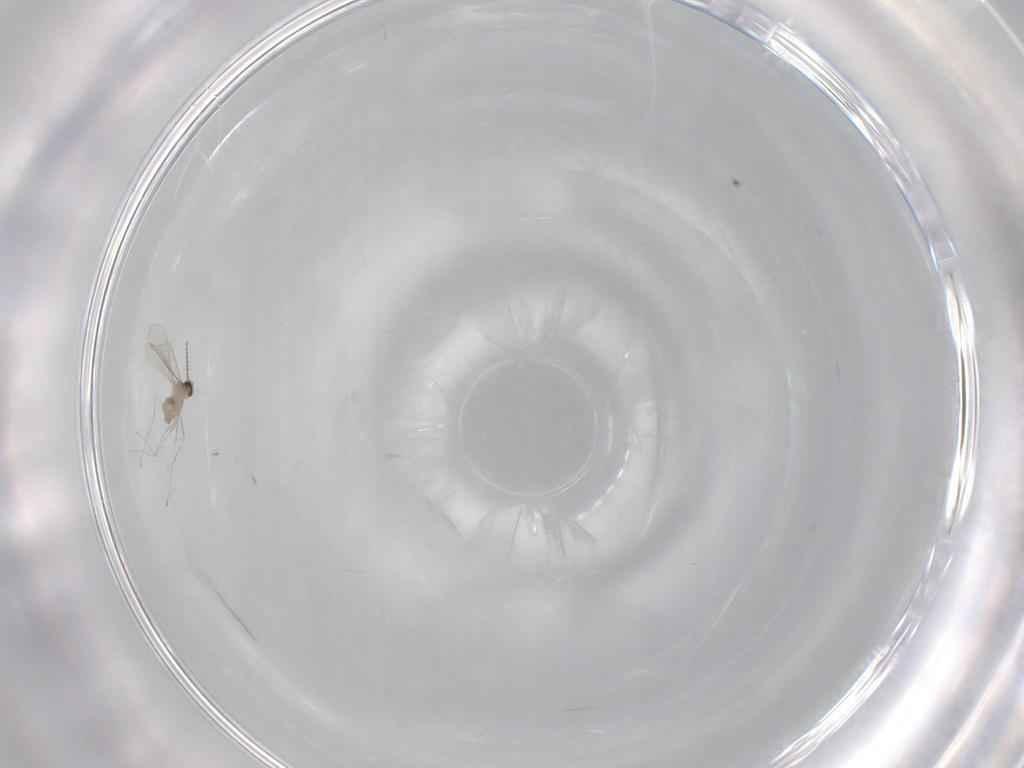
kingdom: Animalia
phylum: Arthropoda
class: Insecta
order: Diptera
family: Cecidomyiidae
